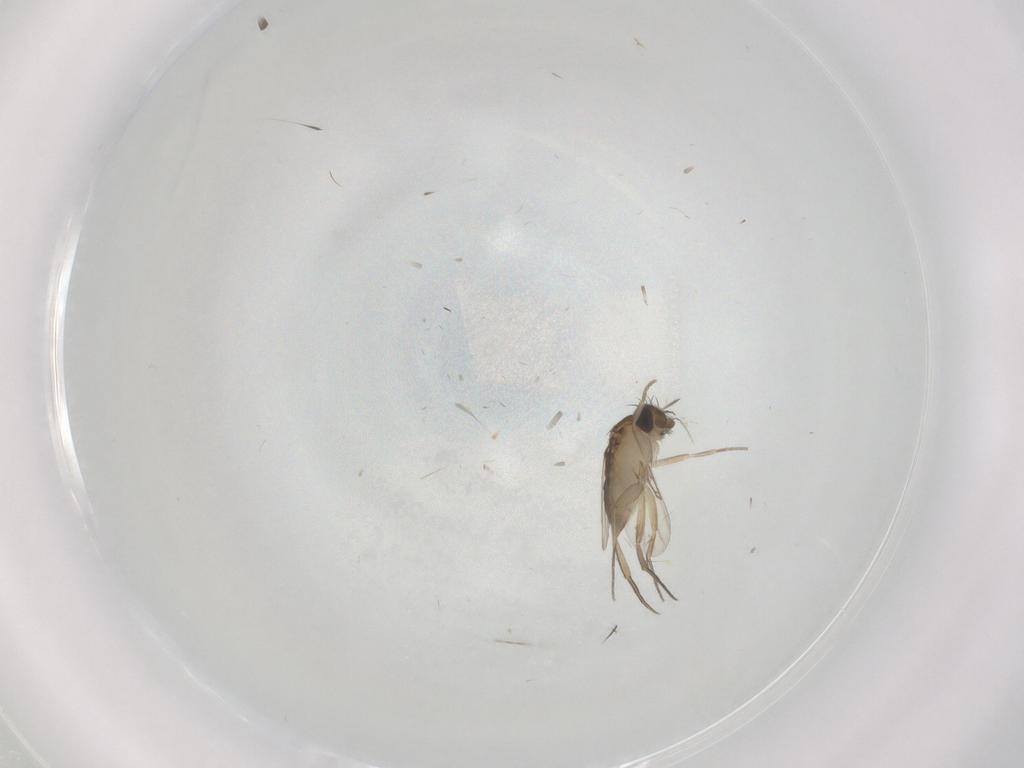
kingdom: Animalia
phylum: Arthropoda
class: Insecta
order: Diptera
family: Phoridae
